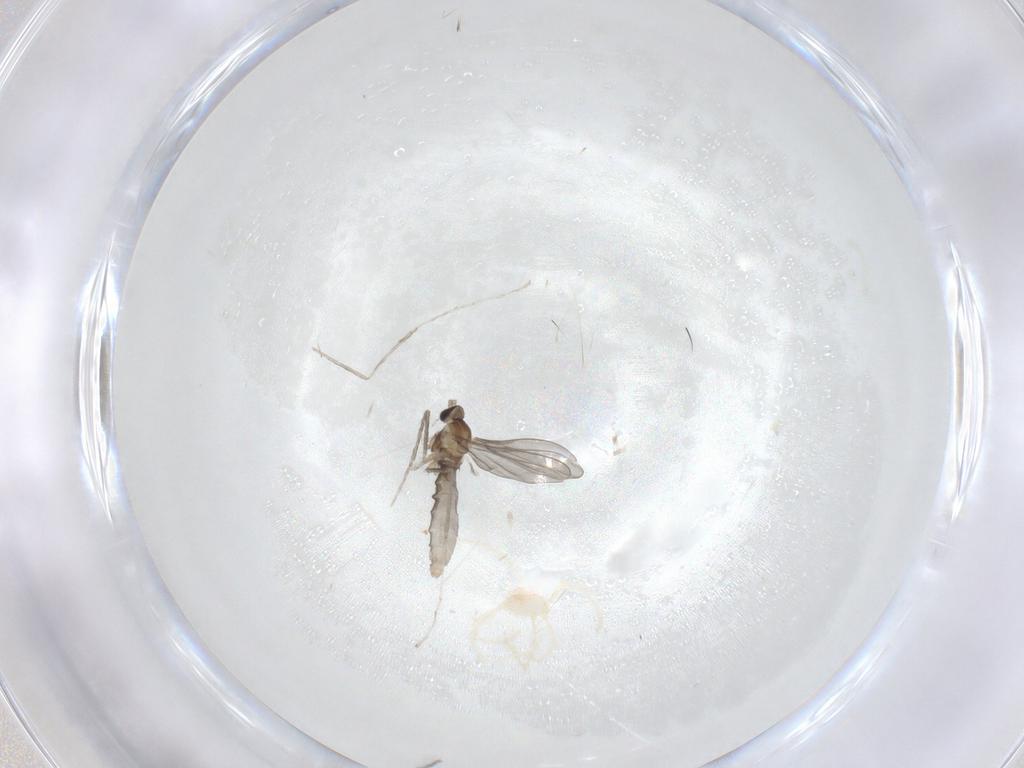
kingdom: Animalia
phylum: Arthropoda
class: Insecta
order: Diptera
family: Cecidomyiidae
